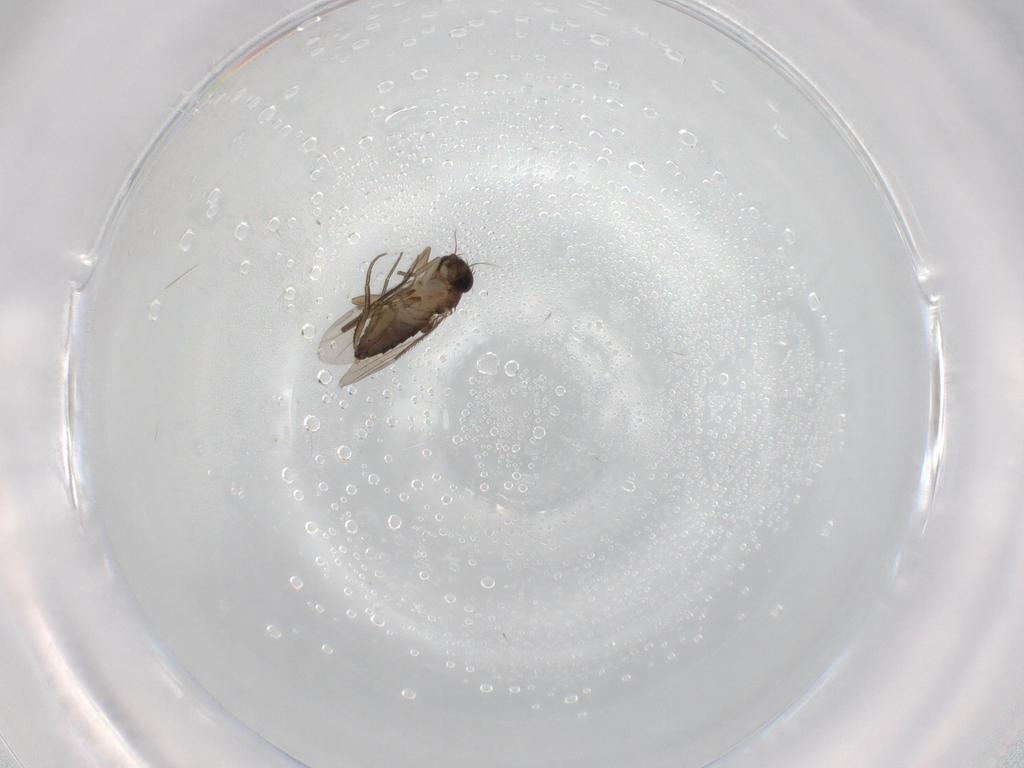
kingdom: Animalia
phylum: Arthropoda
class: Insecta
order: Diptera
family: Phoridae
